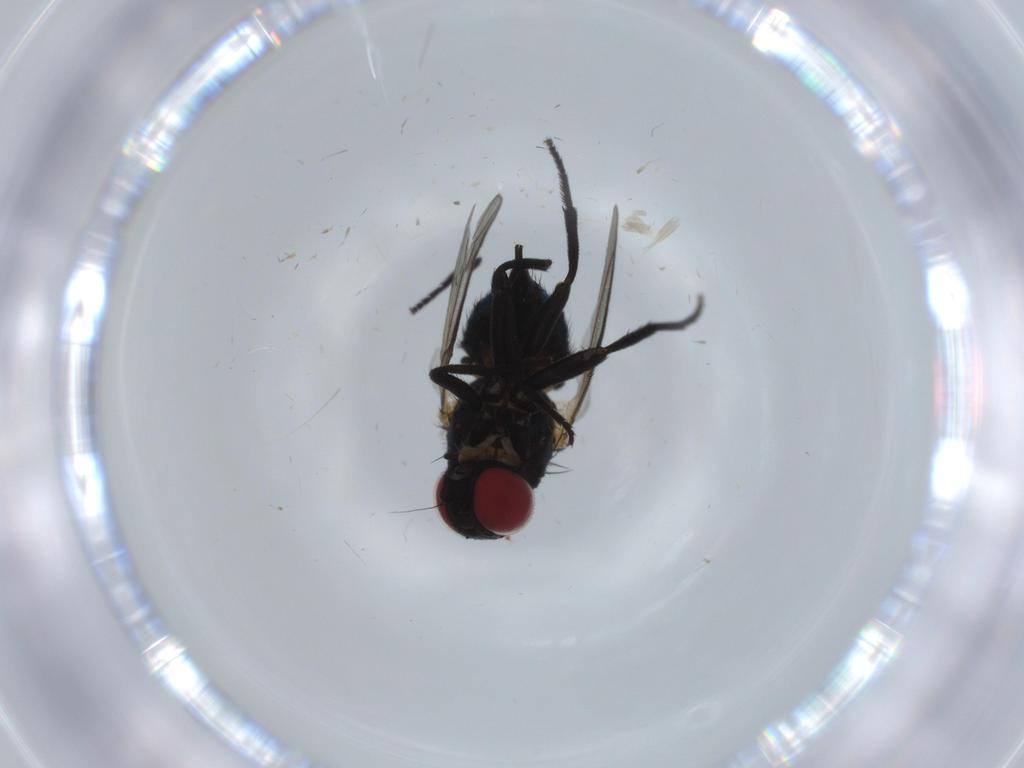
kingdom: Animalia
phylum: Arthropoda
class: Insecta
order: Diptera
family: Agromyzidae
